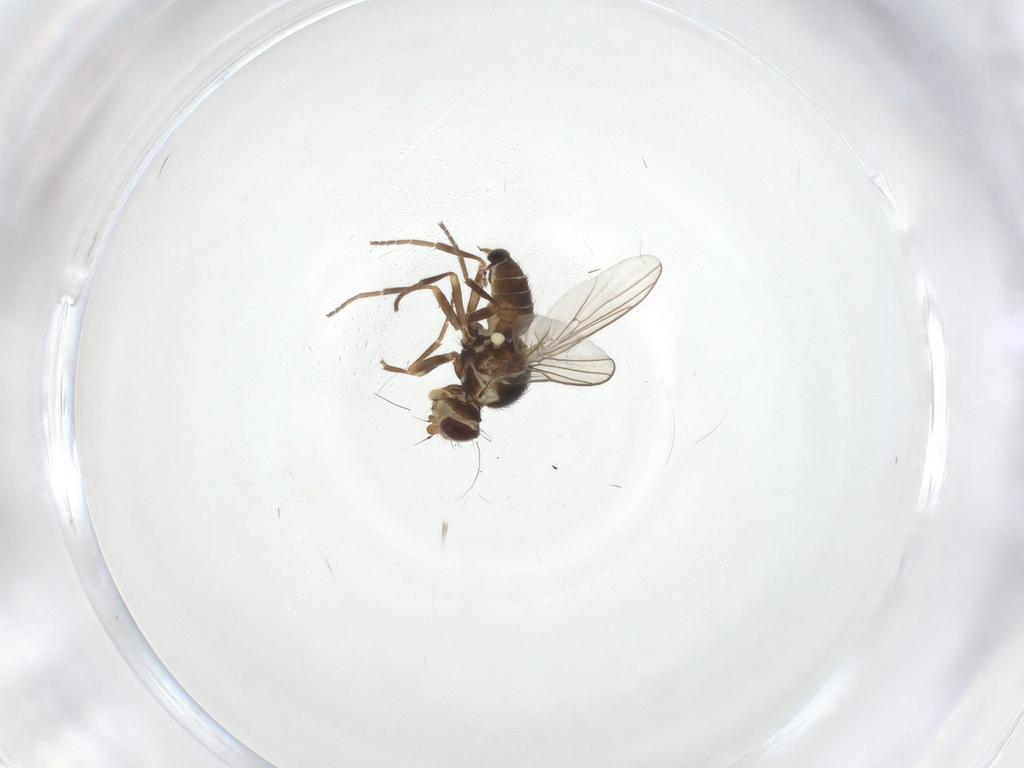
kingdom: Animalia
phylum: Arthropoda
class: Insecta
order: Diptera
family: Agromyzidae
